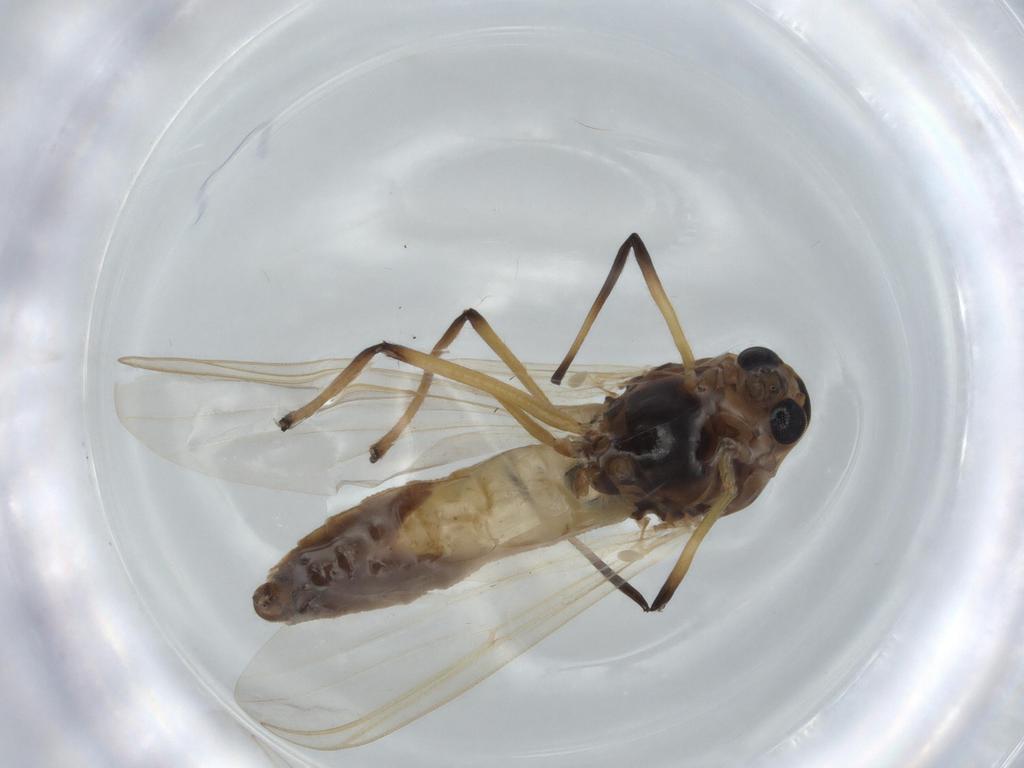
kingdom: Animalia
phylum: Arthropoda
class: Insecta
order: Diptera
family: Chironomidae
